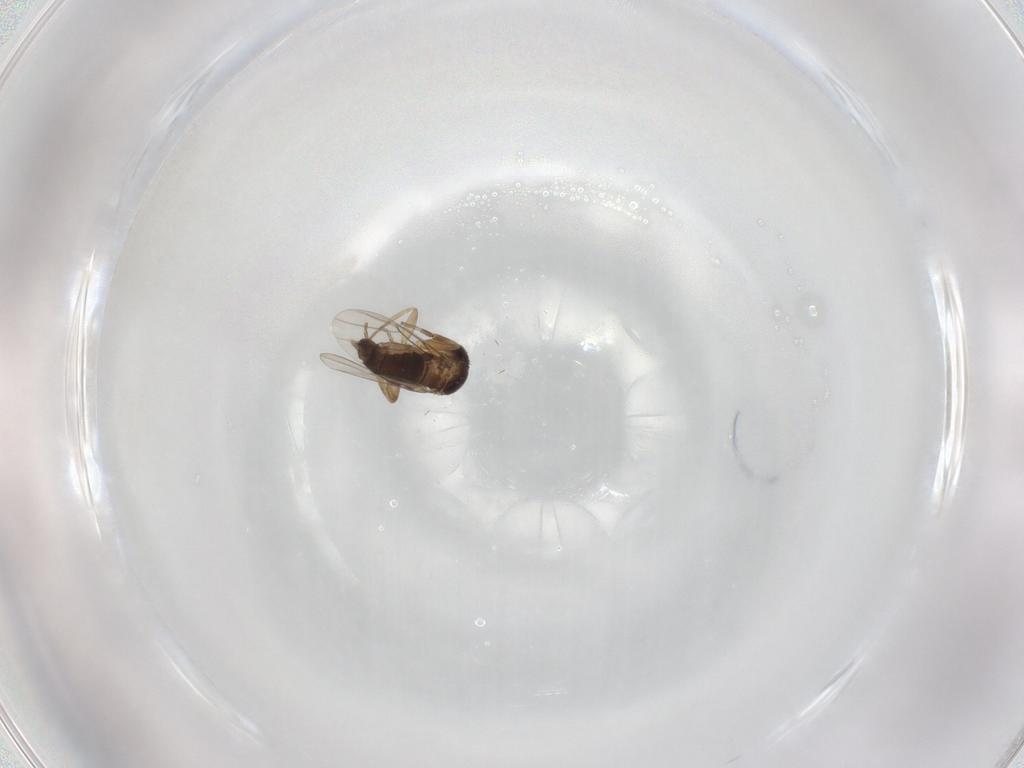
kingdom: Animalia
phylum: Arthropoda
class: Insecta
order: Diptera
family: Phoridae
